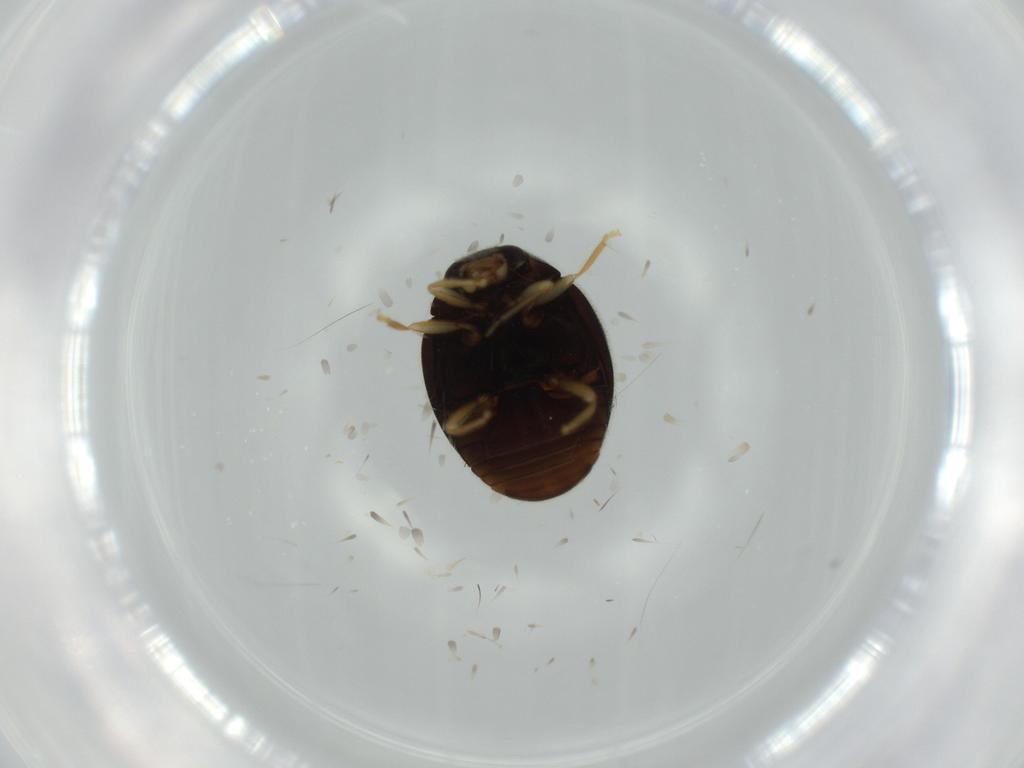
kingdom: Animalia
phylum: Arthropoda
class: Insecta
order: Coleoptera
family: Coccinellidae
